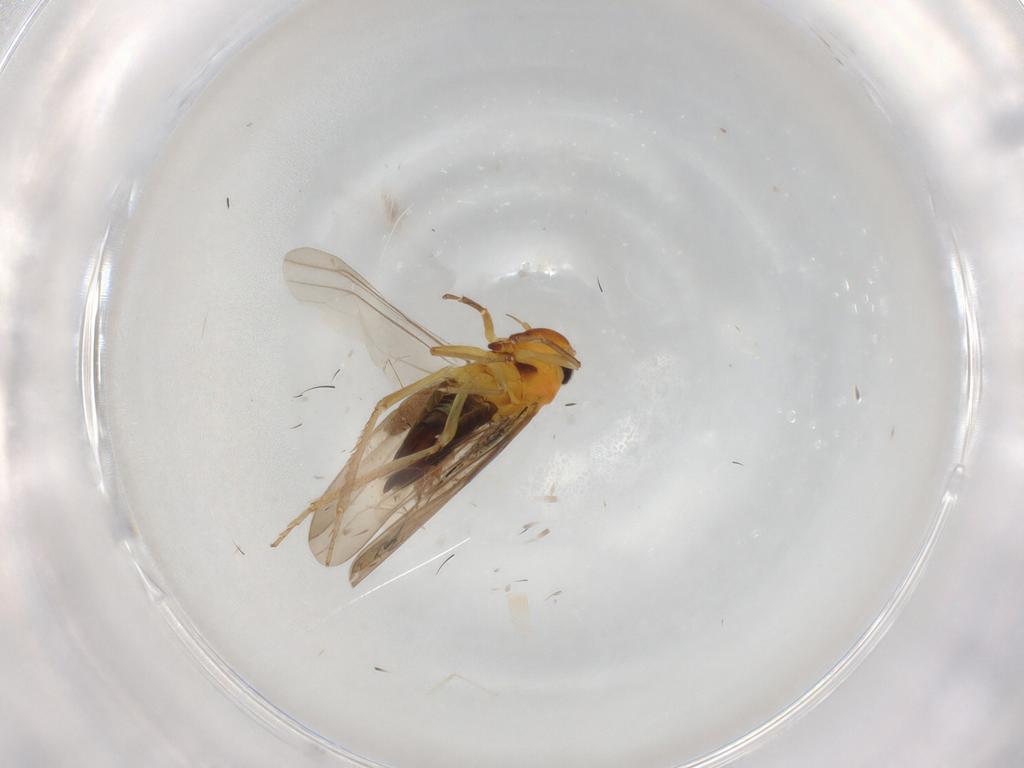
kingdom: Animalia
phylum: Arthropoda
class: Insecta
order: Hemiptera
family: Cicadellidae
